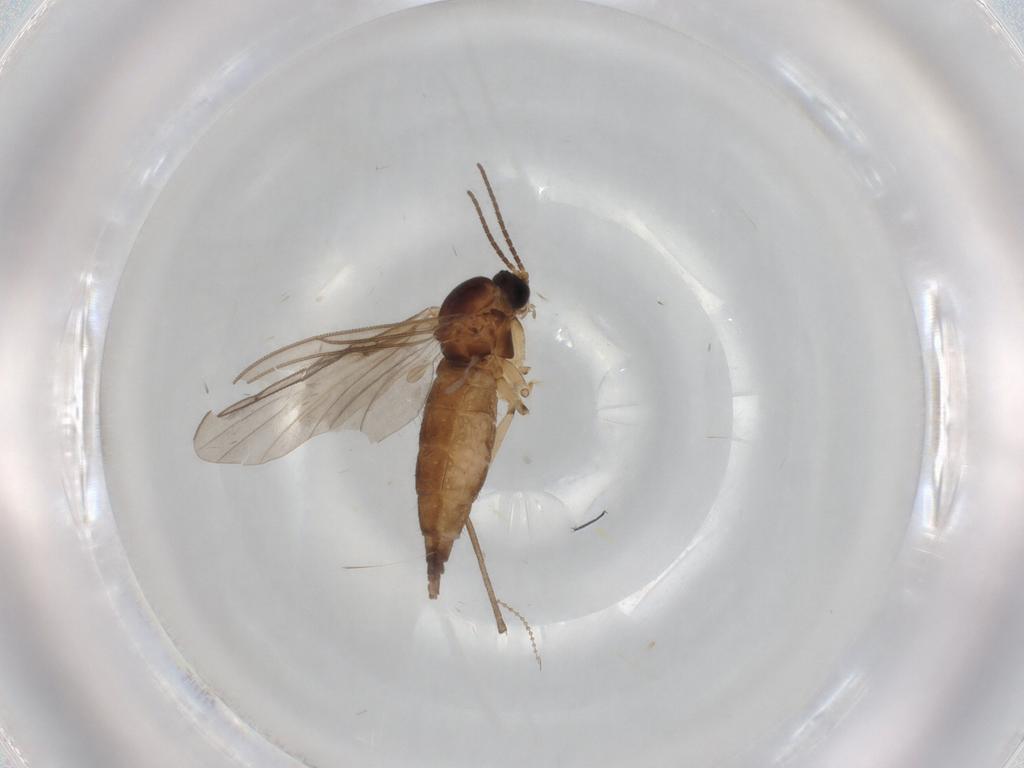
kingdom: Animalia
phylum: Arthropoda
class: Insecta
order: Diptera
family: Sciaridae
